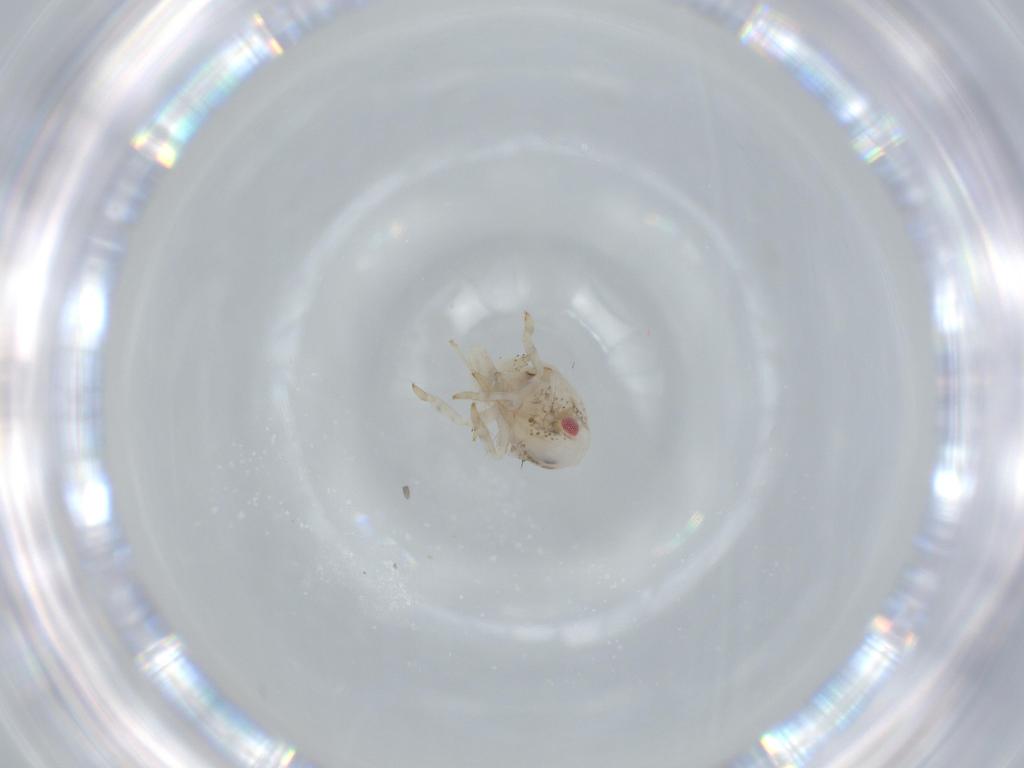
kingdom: Animalia
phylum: Arthropoda
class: Insecta
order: Hemiptera
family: Acanaloniidae
